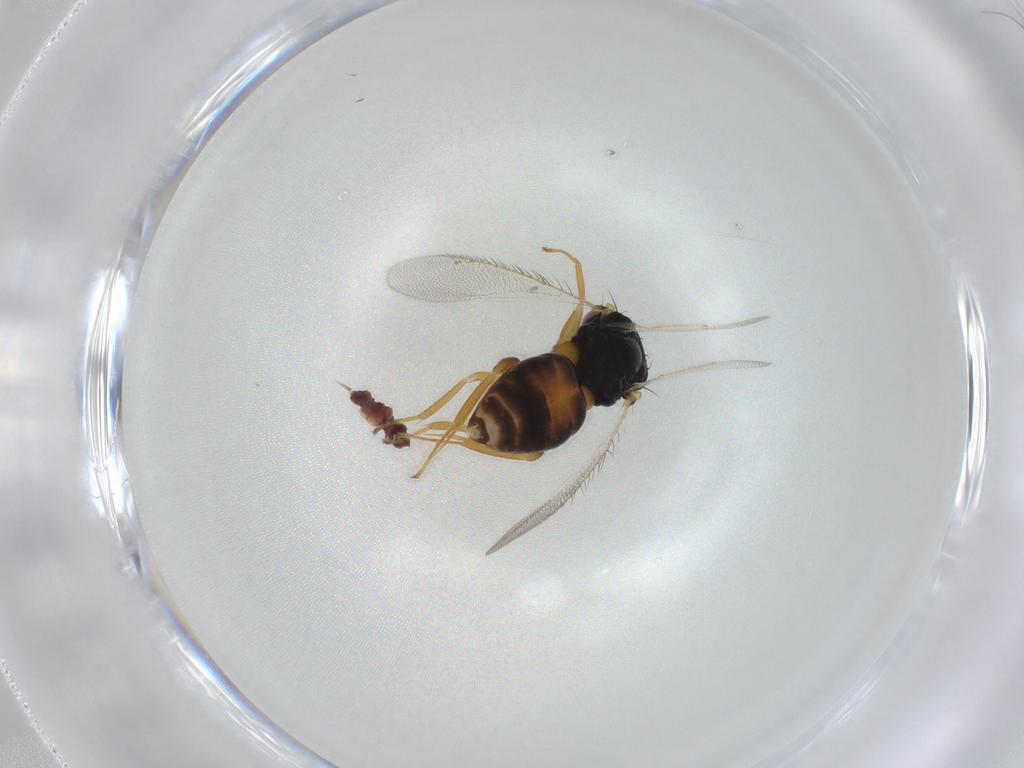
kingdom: Animalia
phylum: Arthropoda
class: Insecta
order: Hymenoptera
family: Eulophidae
